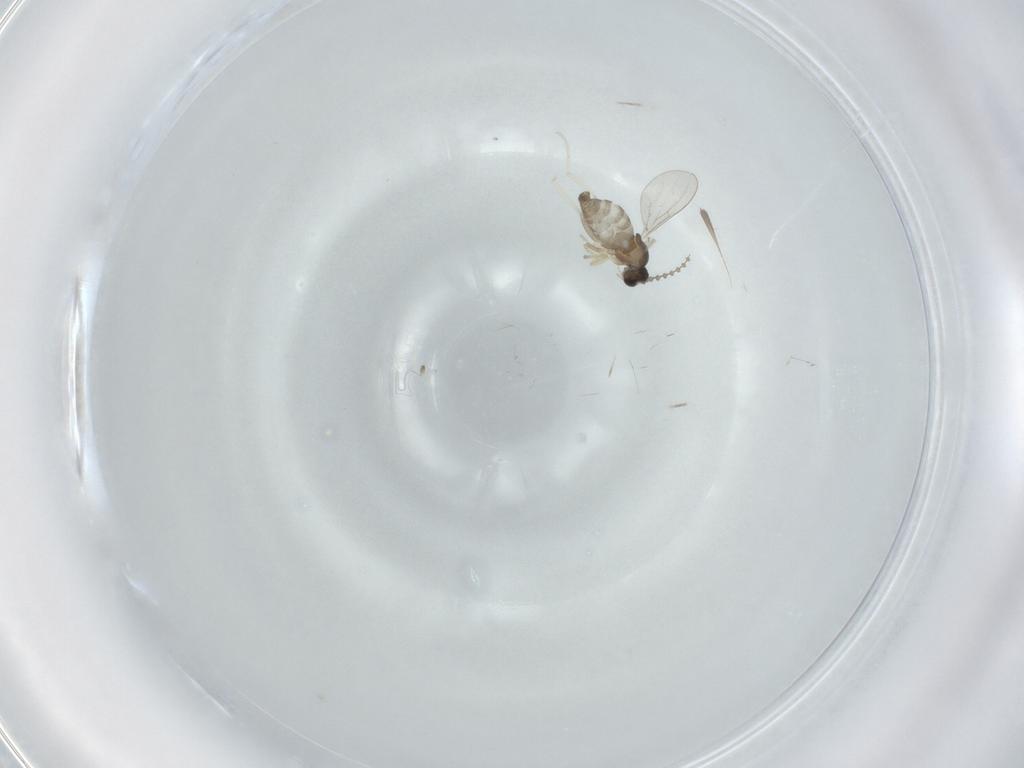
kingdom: Animalia
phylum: Arthropoda
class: Insecta
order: Diptera
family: Cecidomyiidae
